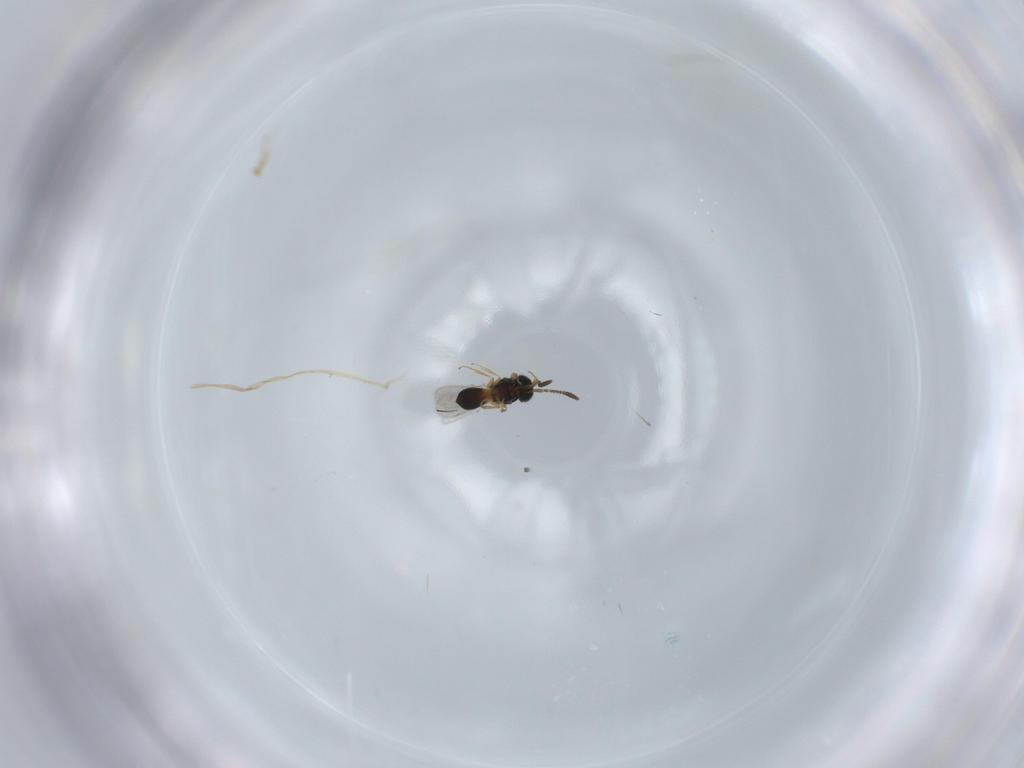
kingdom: Animalia
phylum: Arthropoda
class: Insecta
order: Hymenoptera
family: Scelionidae
